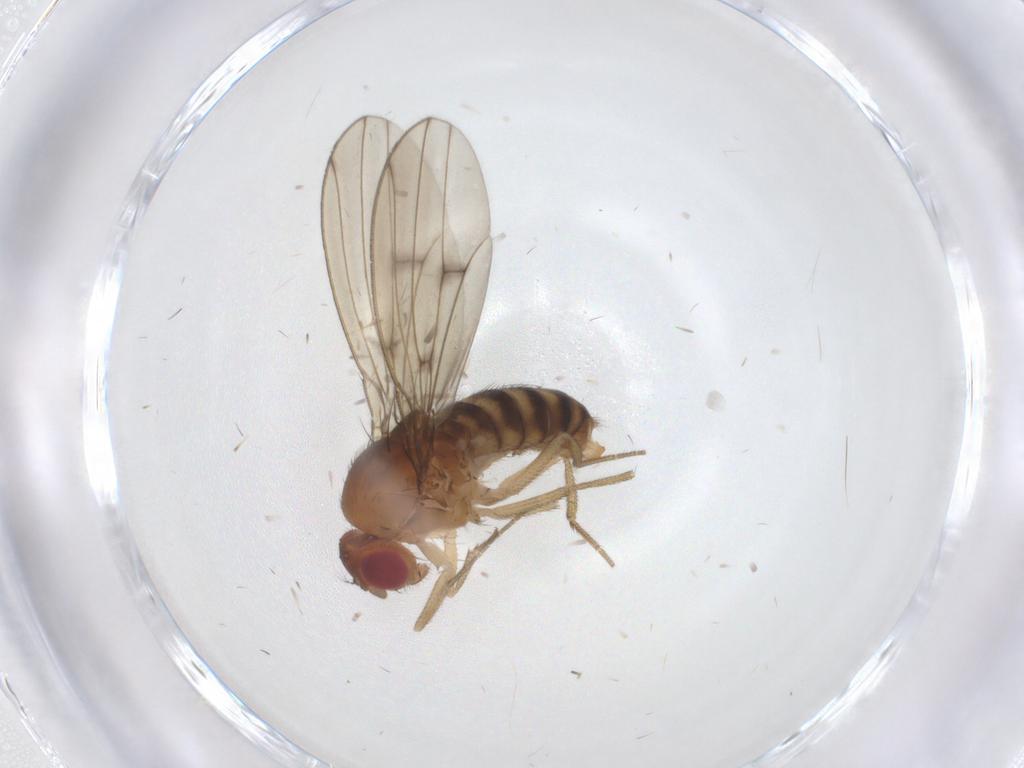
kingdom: Animalia
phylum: Arthropoda
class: Insecta
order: Diptera
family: Drosophilidae
